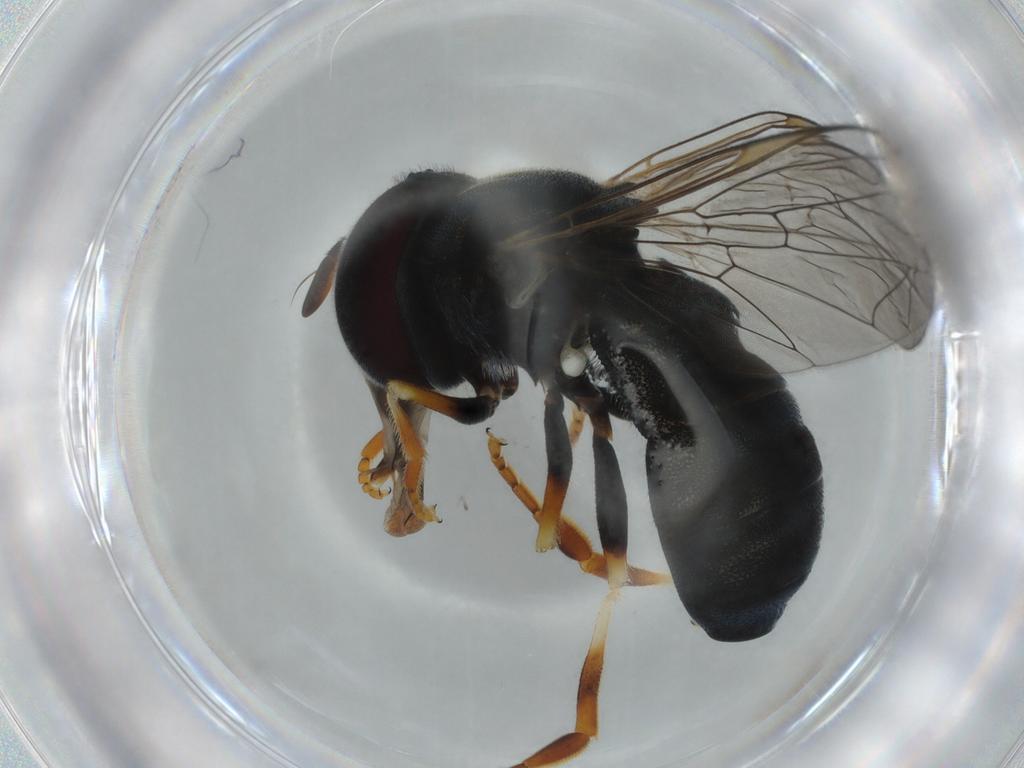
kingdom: Animalia
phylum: Arthropoda
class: Insecta
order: Diptera
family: Syrphidae
